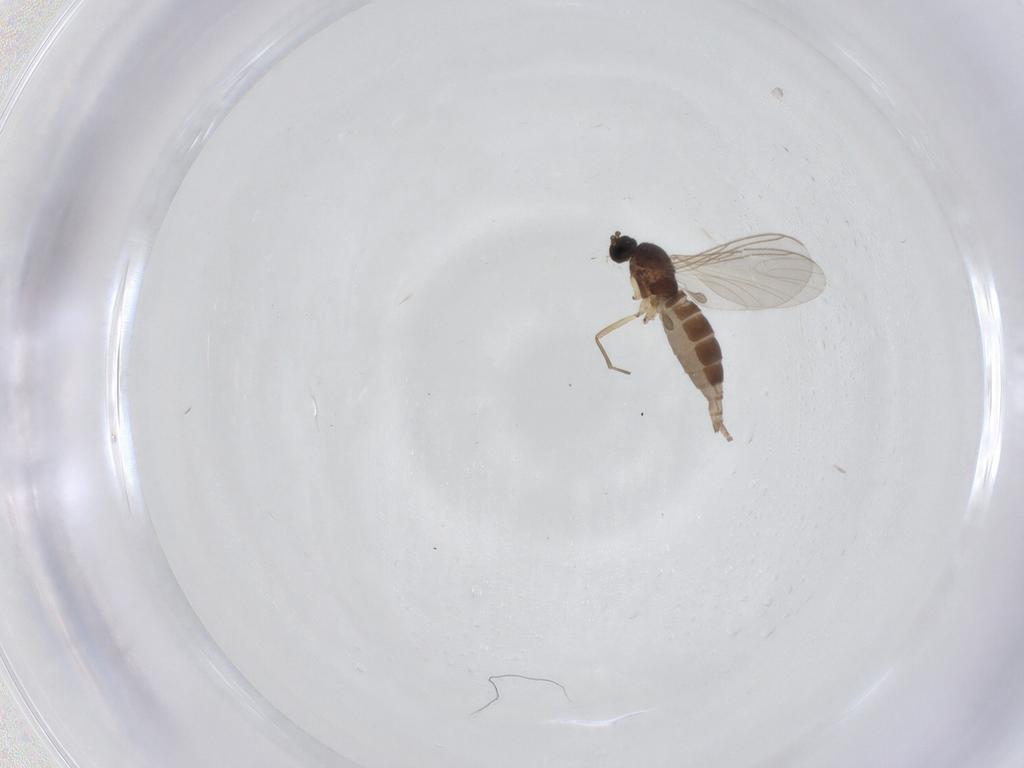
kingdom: Animalia
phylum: Arthropoda
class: Insecta
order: Diptera
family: Sciaridae
